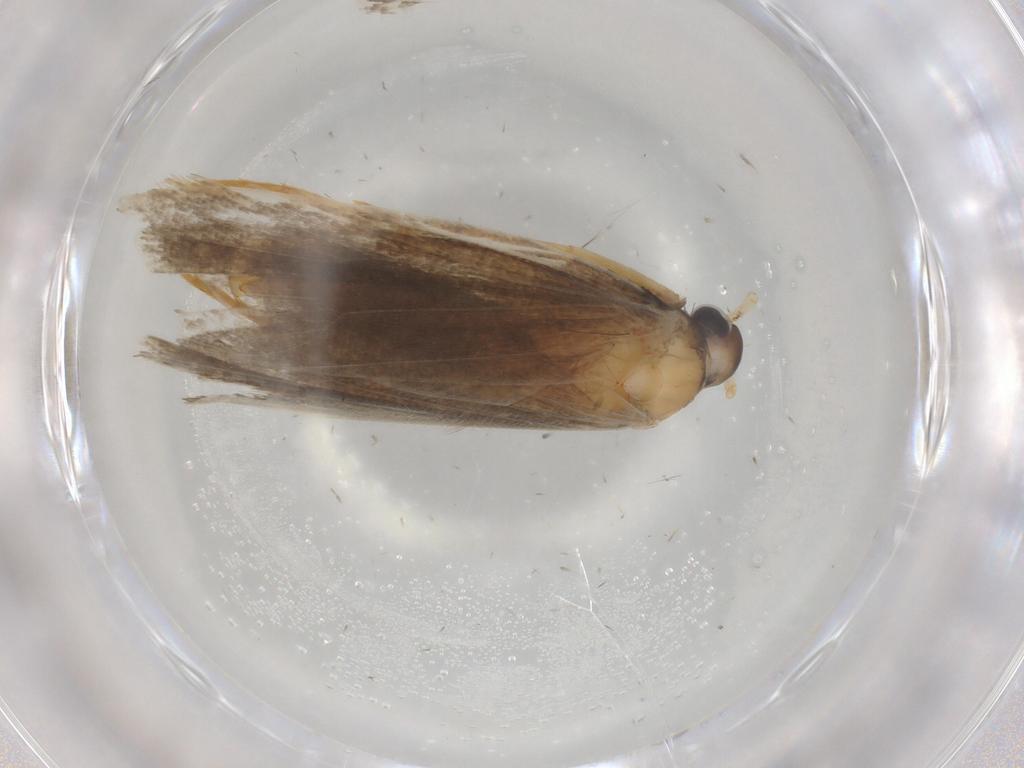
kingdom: Animalia
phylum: Arthropoda
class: Insecta
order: Lepidoptera
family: Lecithoceridae
